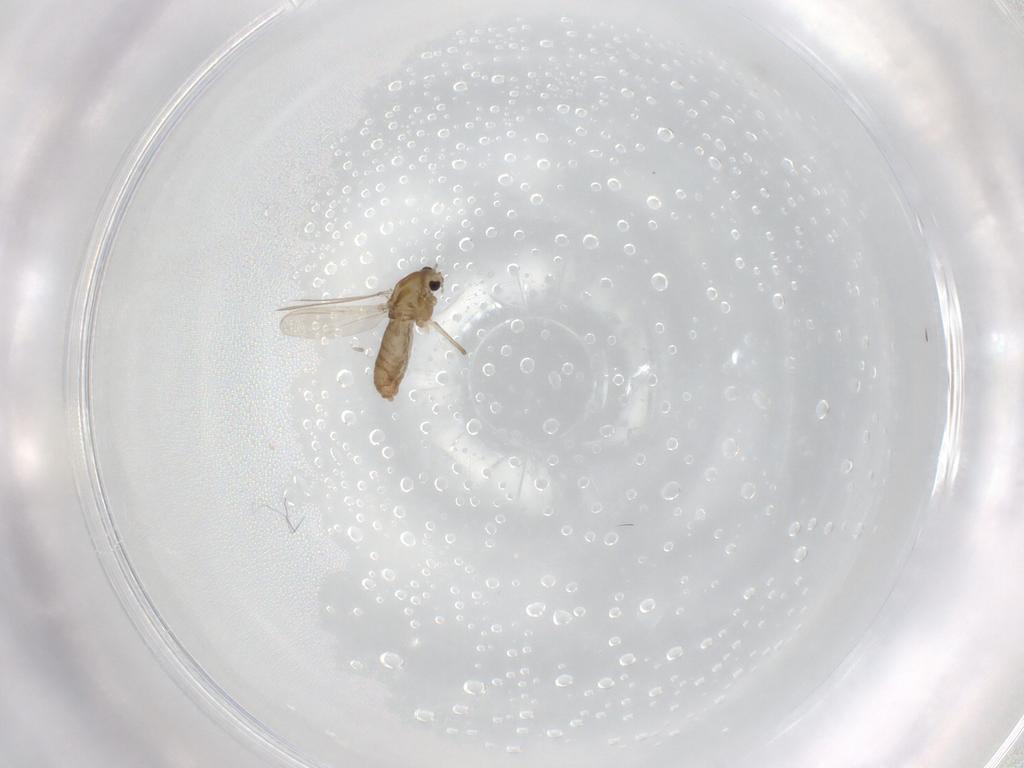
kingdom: Animalia
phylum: Arthropoda
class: Insecta
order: Diptera
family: Chironomidae
